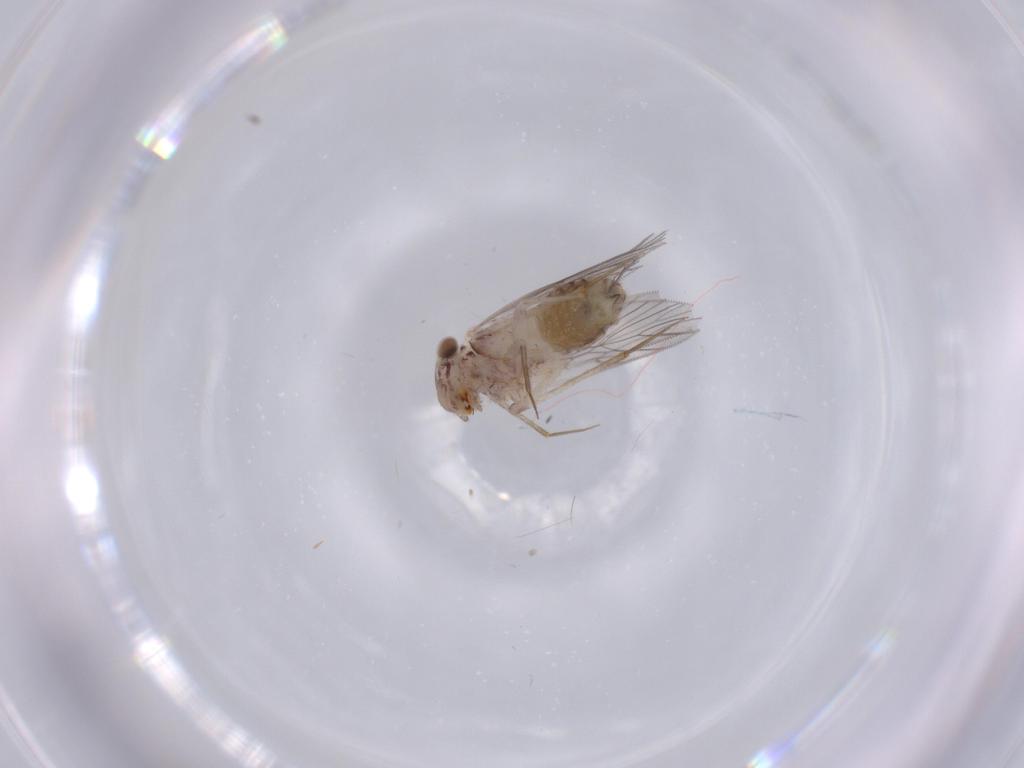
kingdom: Animalia
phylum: Arthropoda
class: Insecta
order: Psocodea
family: Lepidopsocidae
